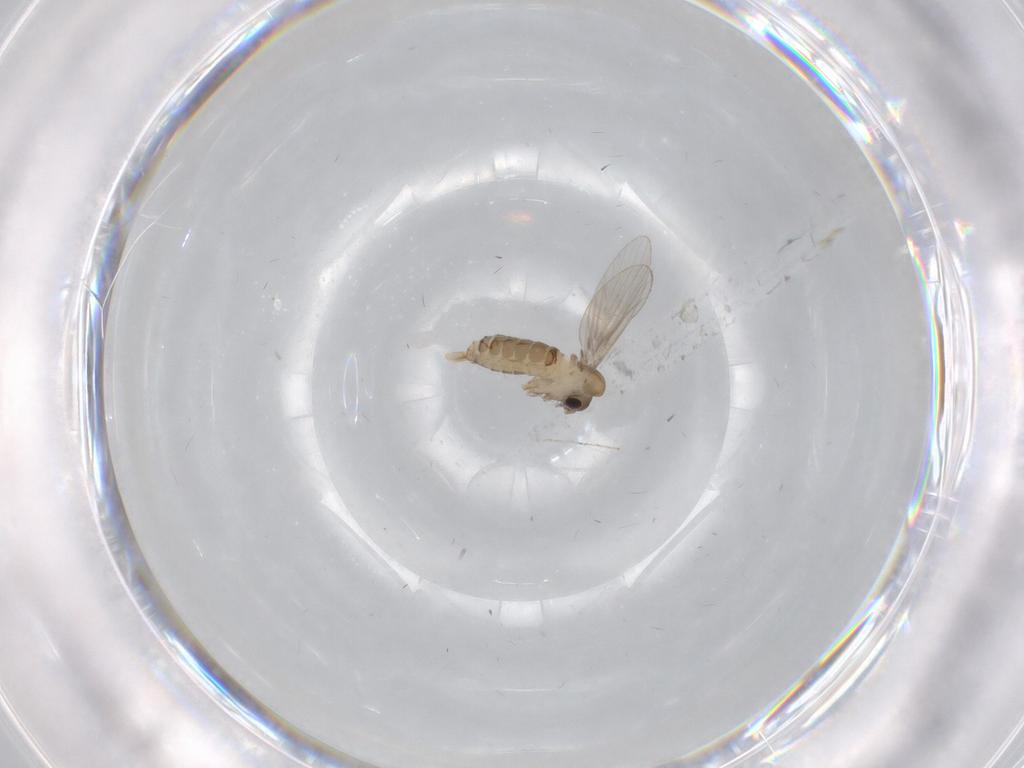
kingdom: Animalia
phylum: Arthropoda
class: Insecta
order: Diptera
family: Psychodidae
